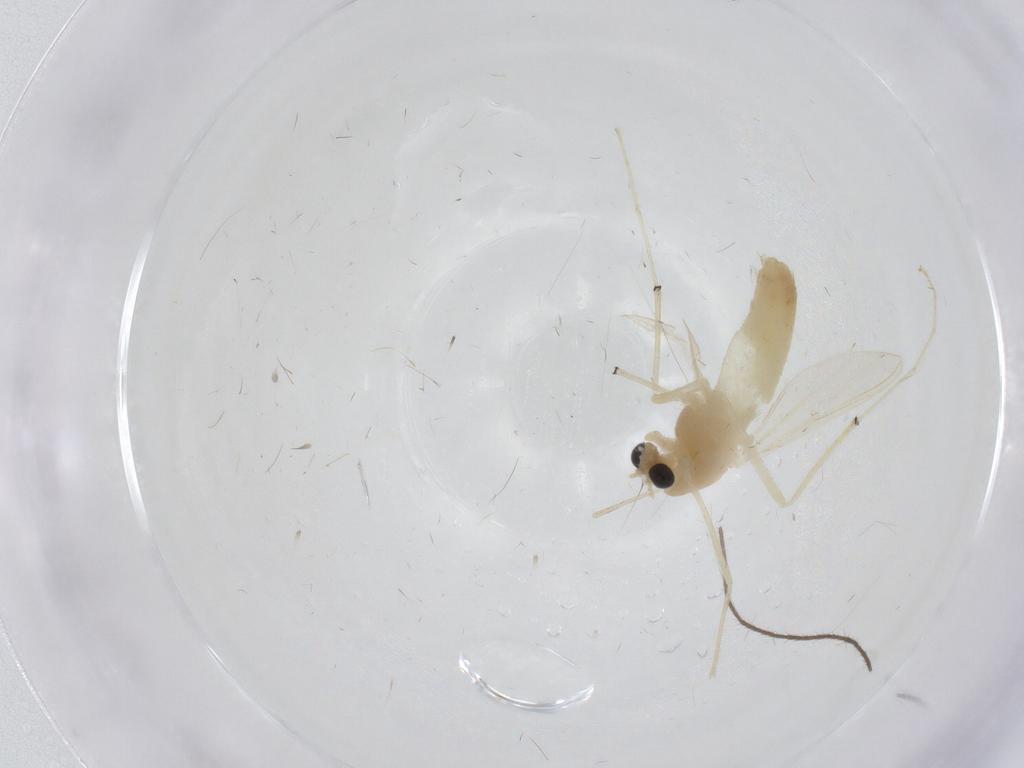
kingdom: Animalia
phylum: Arthropoda
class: Insecta
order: Diptera
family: Chironomidae
